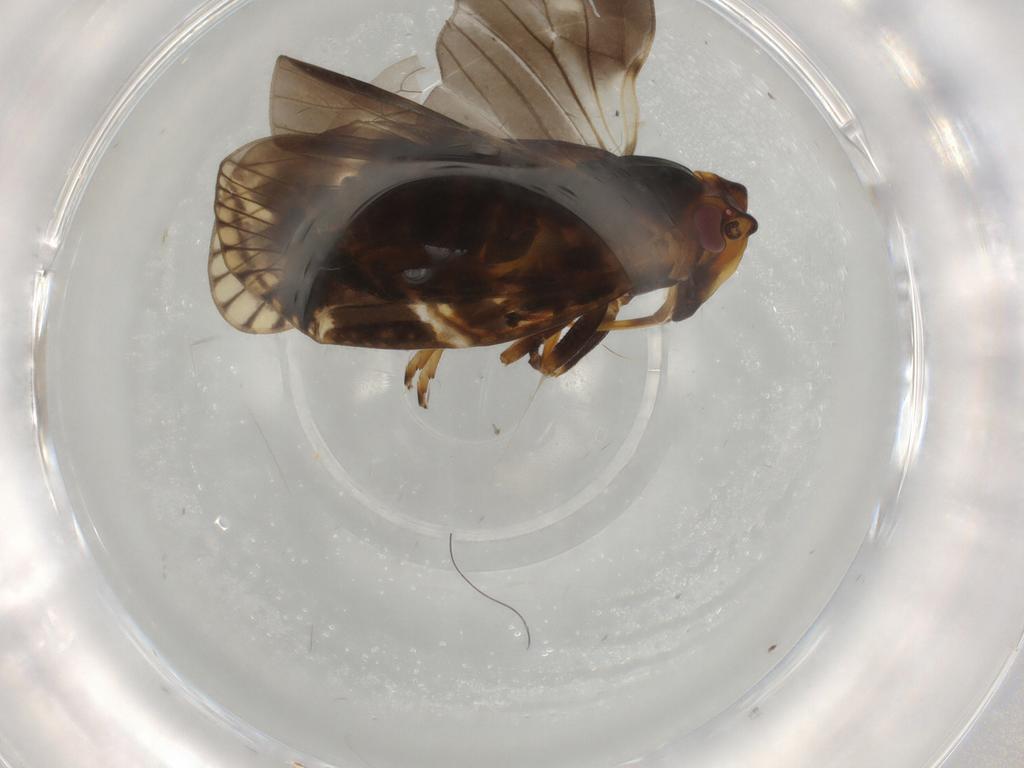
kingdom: Animalia
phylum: Arthropoda
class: Insecta
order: Hemiptera
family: Cixiidae
